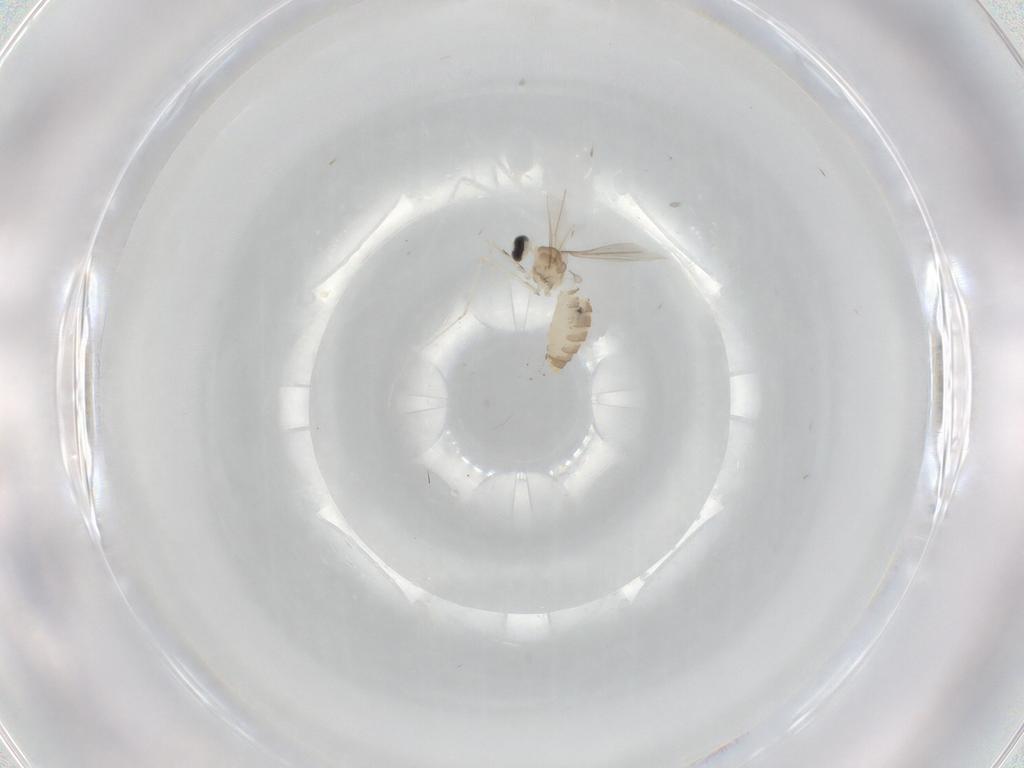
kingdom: Animalia
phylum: Arthropoda
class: Insecta
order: Diptera
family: Cecidomyiidae
